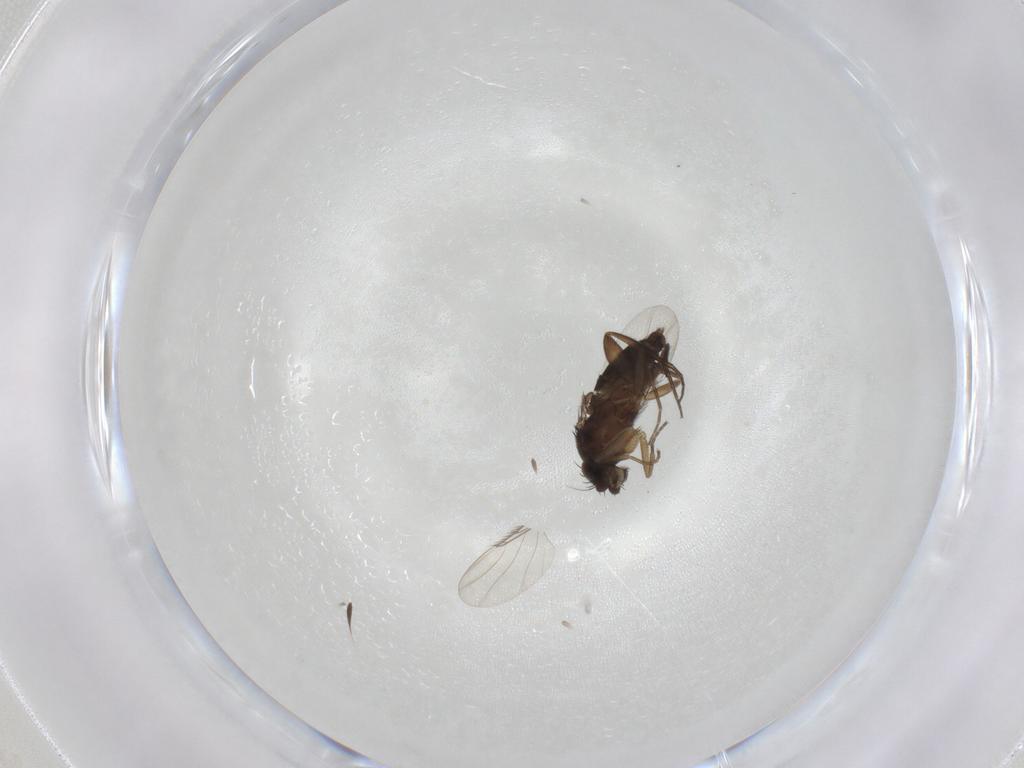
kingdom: Animalia
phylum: Arthropoda
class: Insecta
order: Diptera
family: Phoridae
